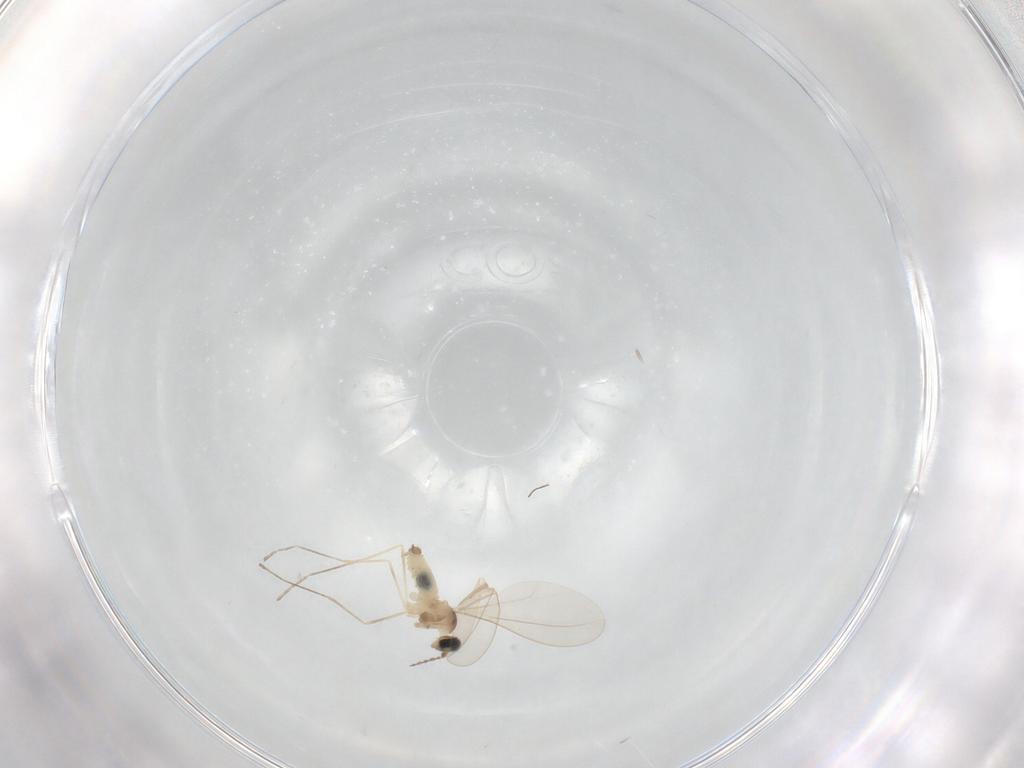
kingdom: Animalia
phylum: Arthropoda
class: Insecta
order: Diptera
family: Cecidomyiidae
